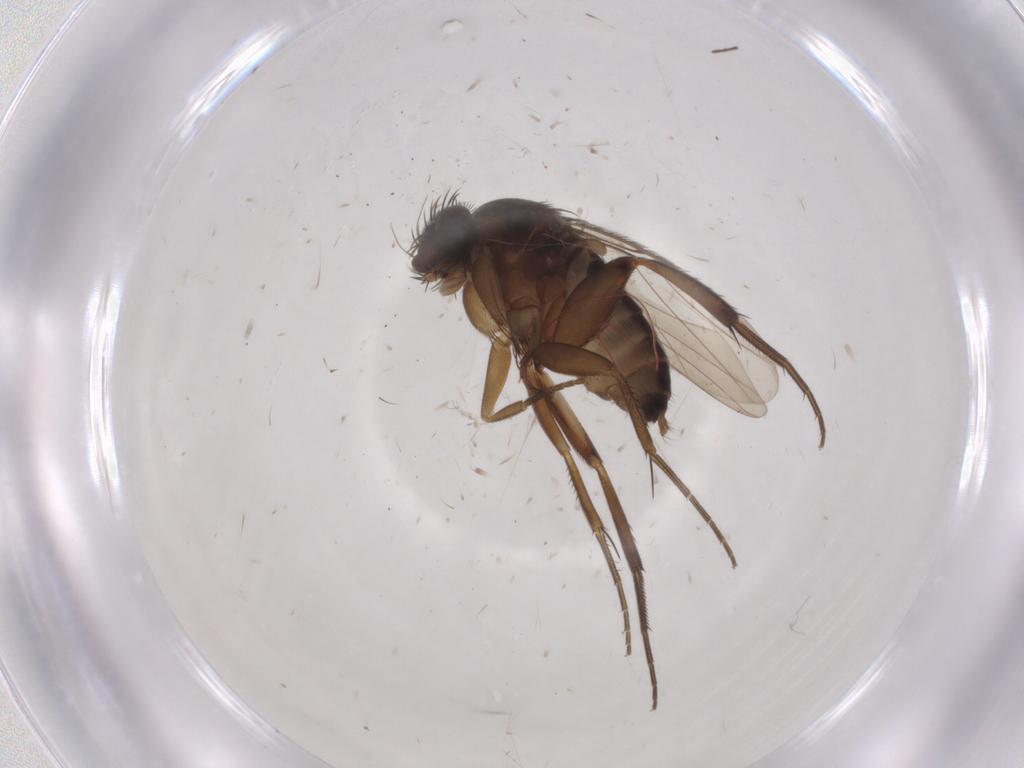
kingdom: Animalia
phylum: Arthropoda
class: Insecta
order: Diptera
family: Phoridae
